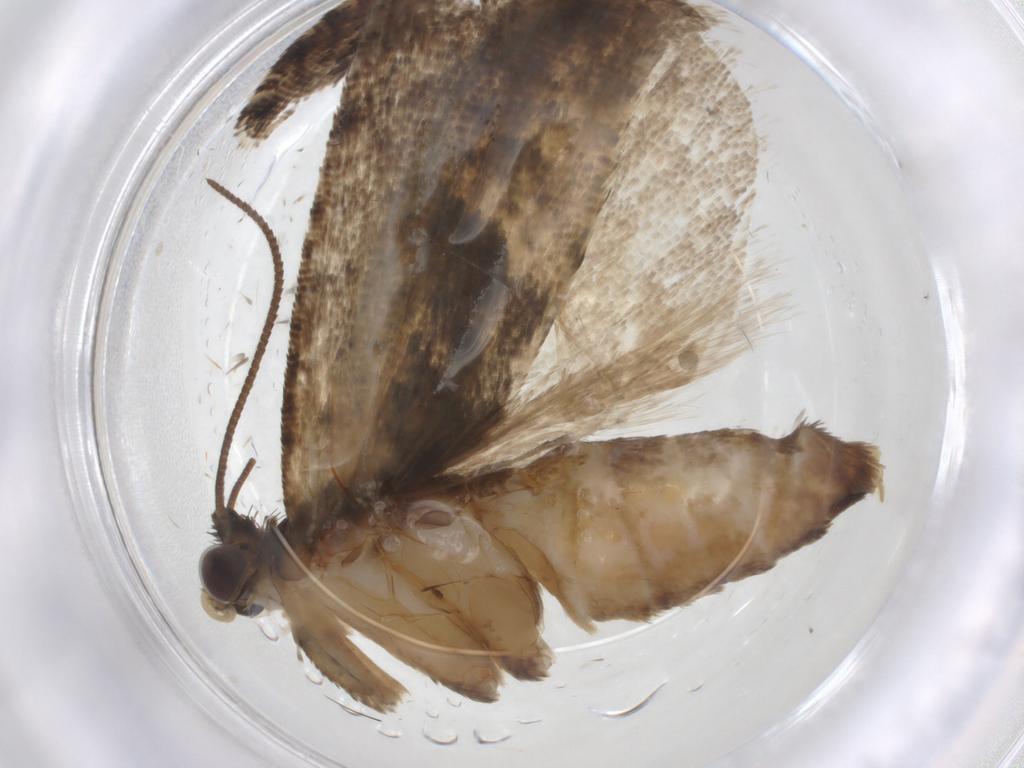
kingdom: Animalia
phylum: Arthropoda
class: Insecta
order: Lepidoptera
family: Tortricidae
